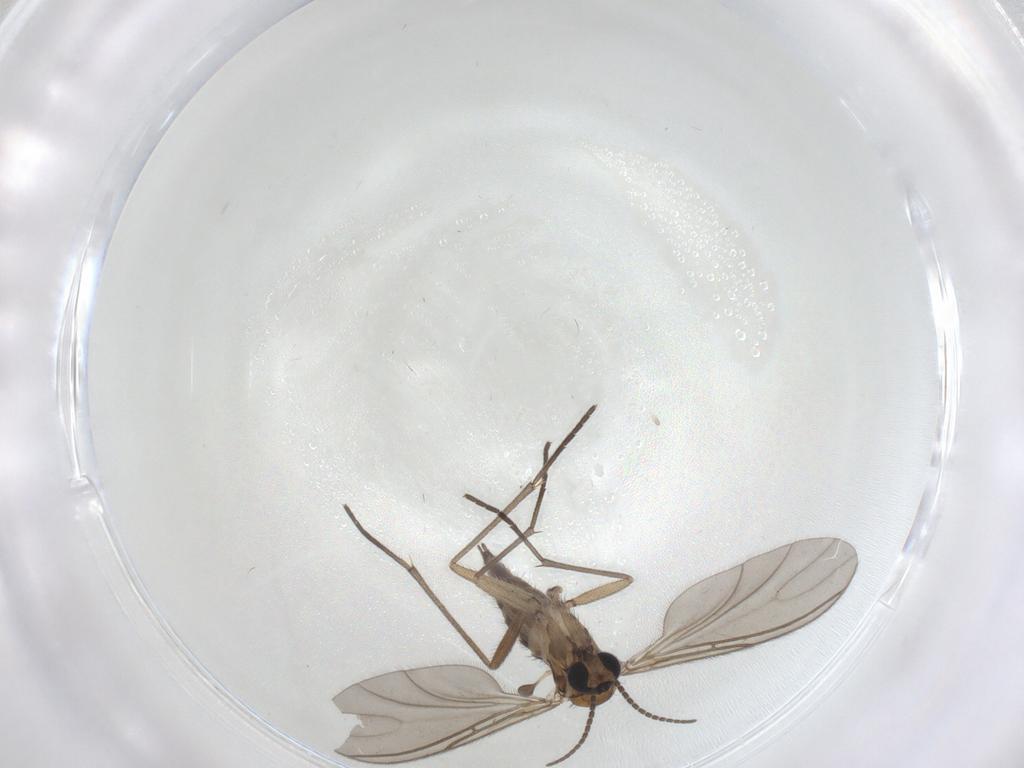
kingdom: Animalia
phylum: Arthropoda
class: Insecta
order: Diptera
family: Sciaridae
